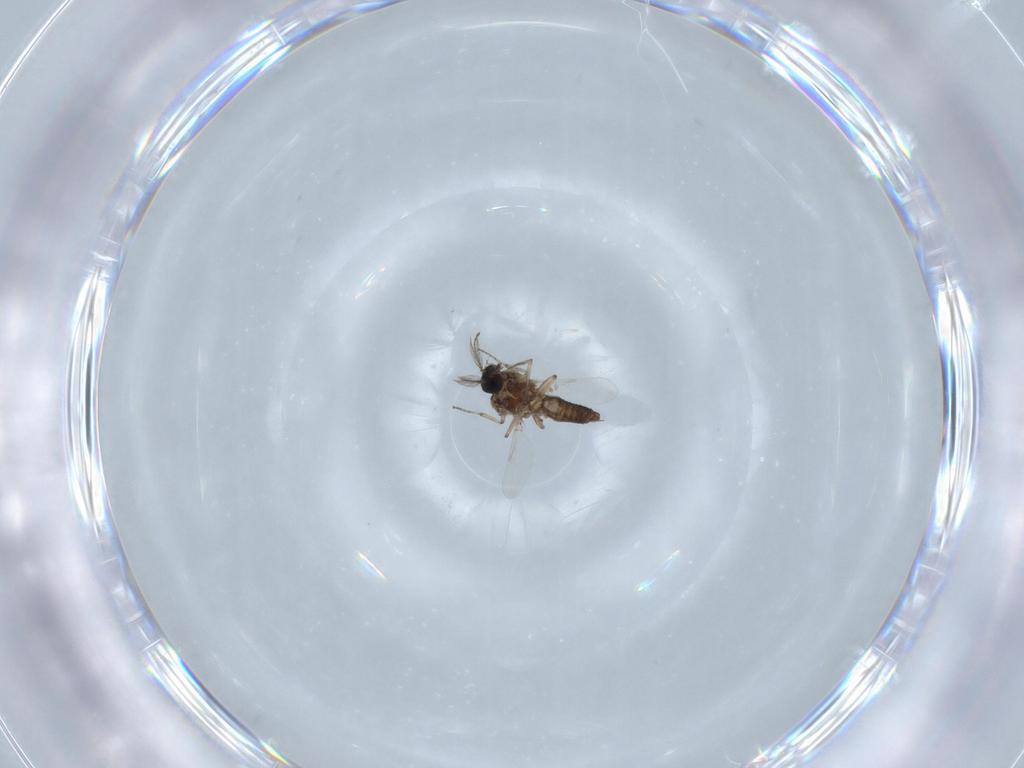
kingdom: Animalia
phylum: Arthropoda
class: Insecta
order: Diptera
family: Ceratopogonidae
